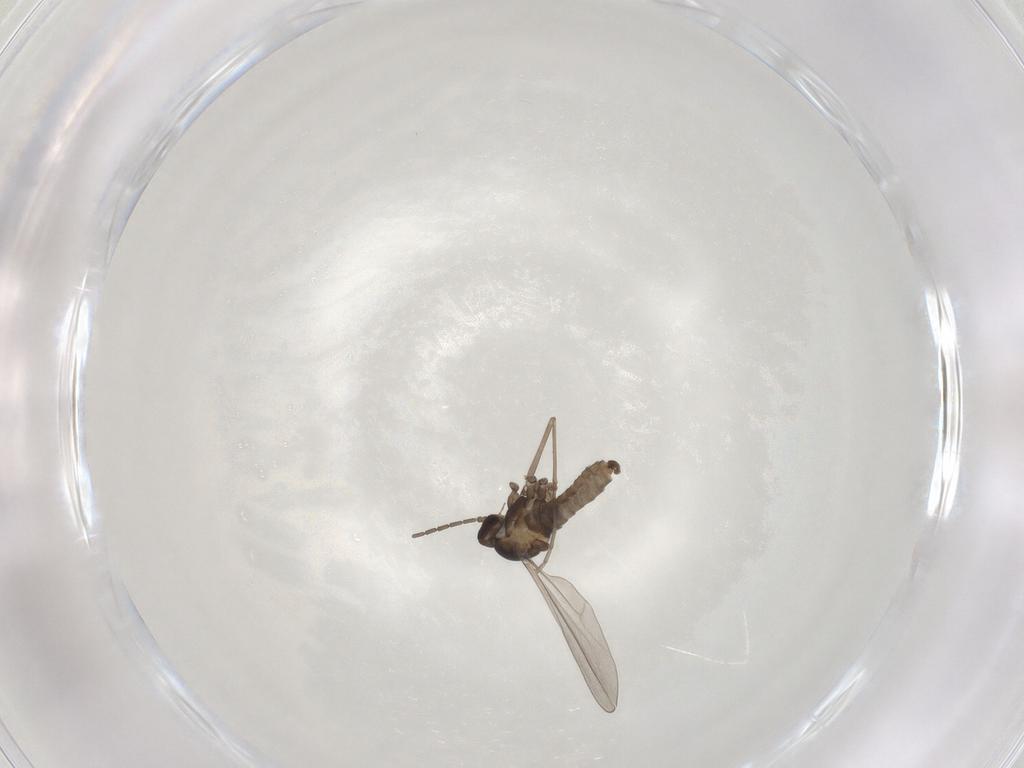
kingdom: Animalia
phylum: Arthropoda
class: Insecta
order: Diptera
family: Cecidomyiidae
